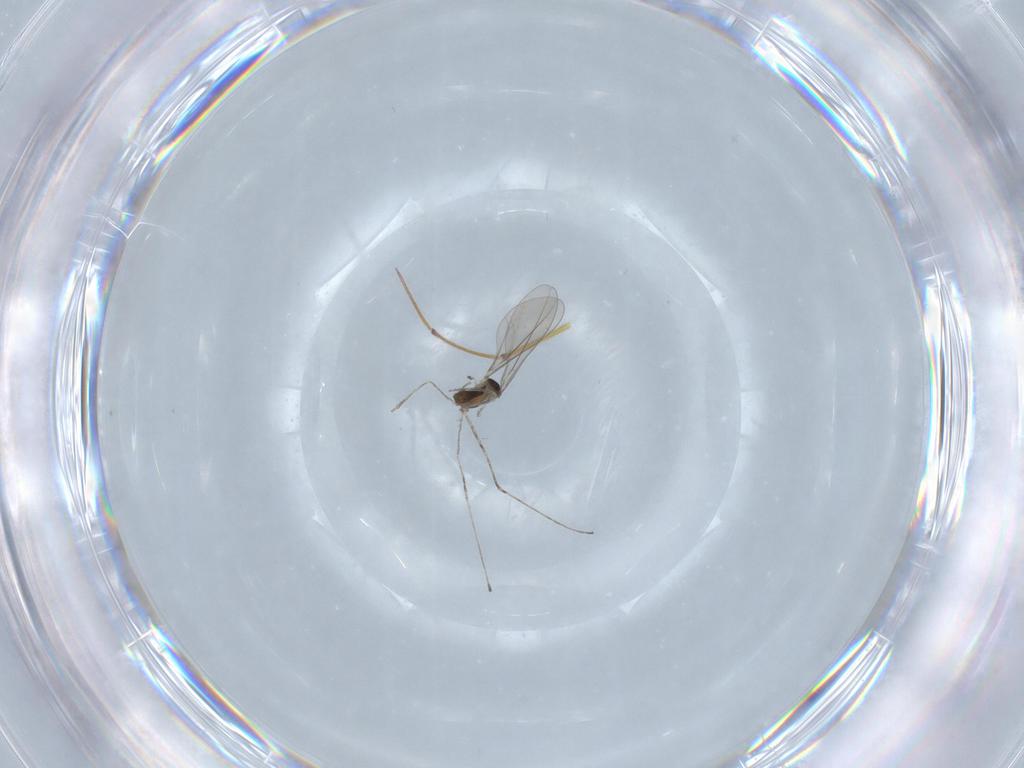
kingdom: Animalia
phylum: Arthropoda
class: Insecta
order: Diptera
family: Cecidomyiidae
